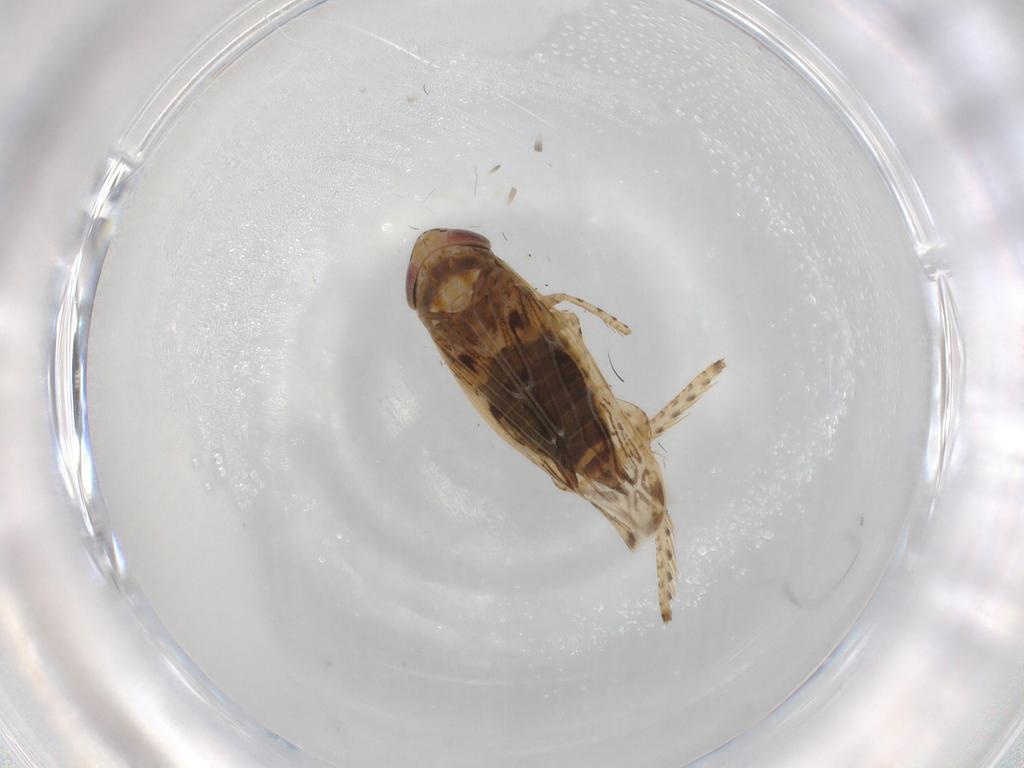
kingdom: Animalia
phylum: Arthropoda
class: Insecta
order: Hemiptera
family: Cicadellidae
